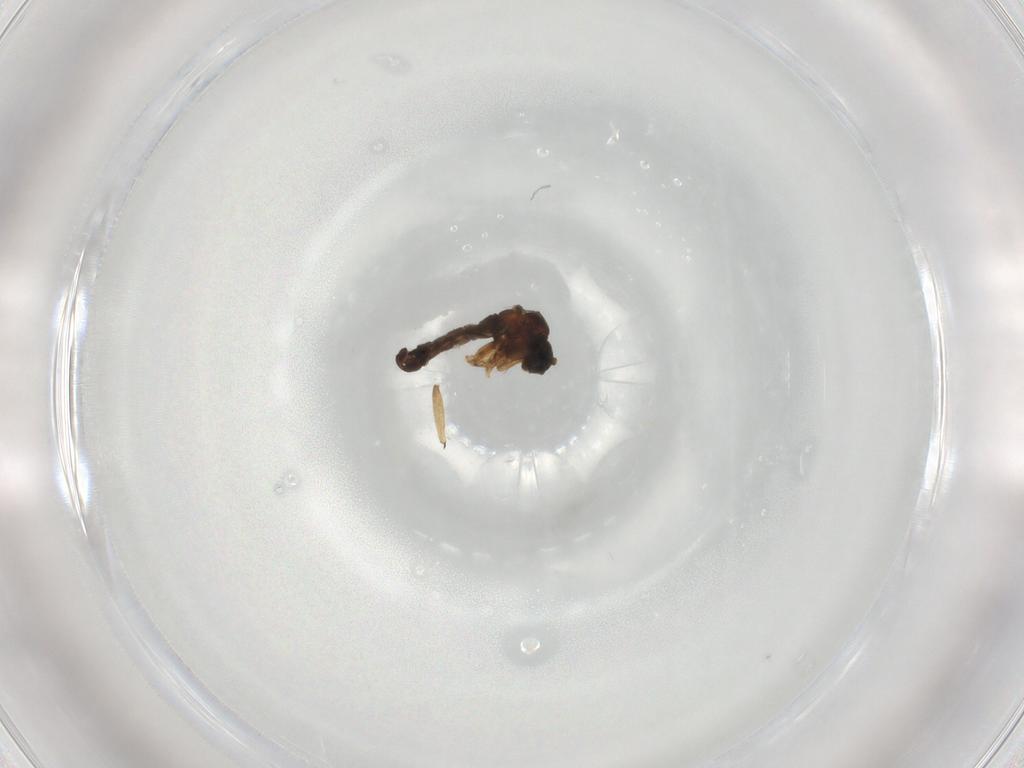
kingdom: Animalia
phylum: Arthropoda
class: Insecta
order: Diptera
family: Sciaridae
